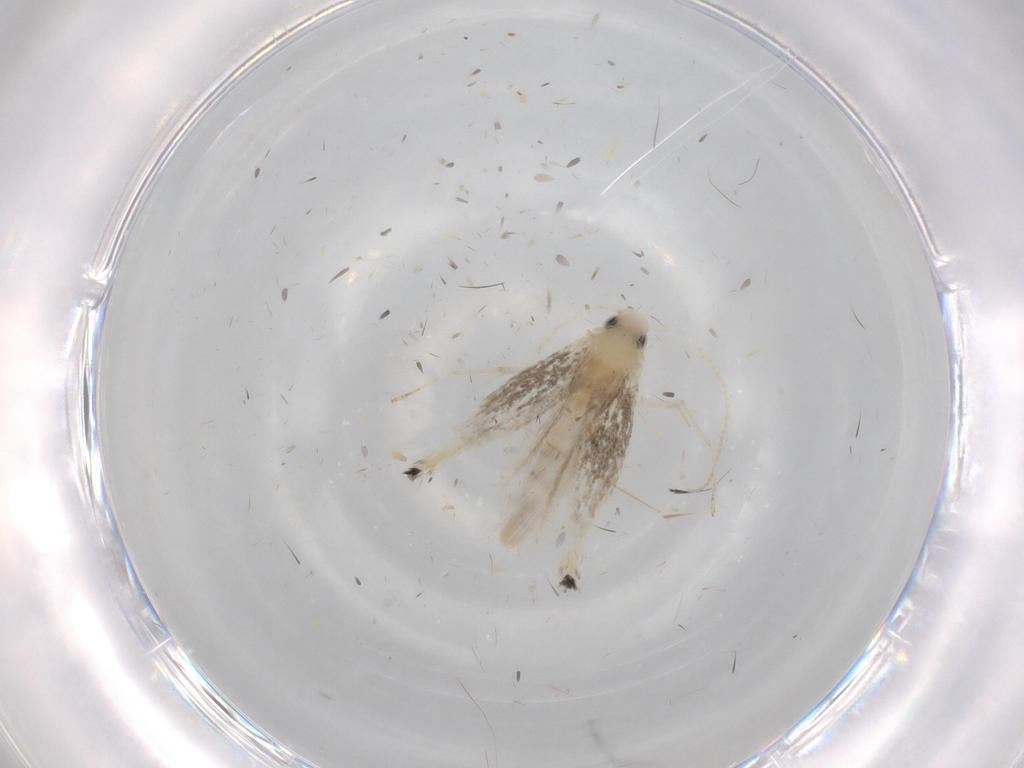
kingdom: Animalia
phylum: Arthropoda
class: Insecta
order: Lepidoptera
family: Gracillariidae
